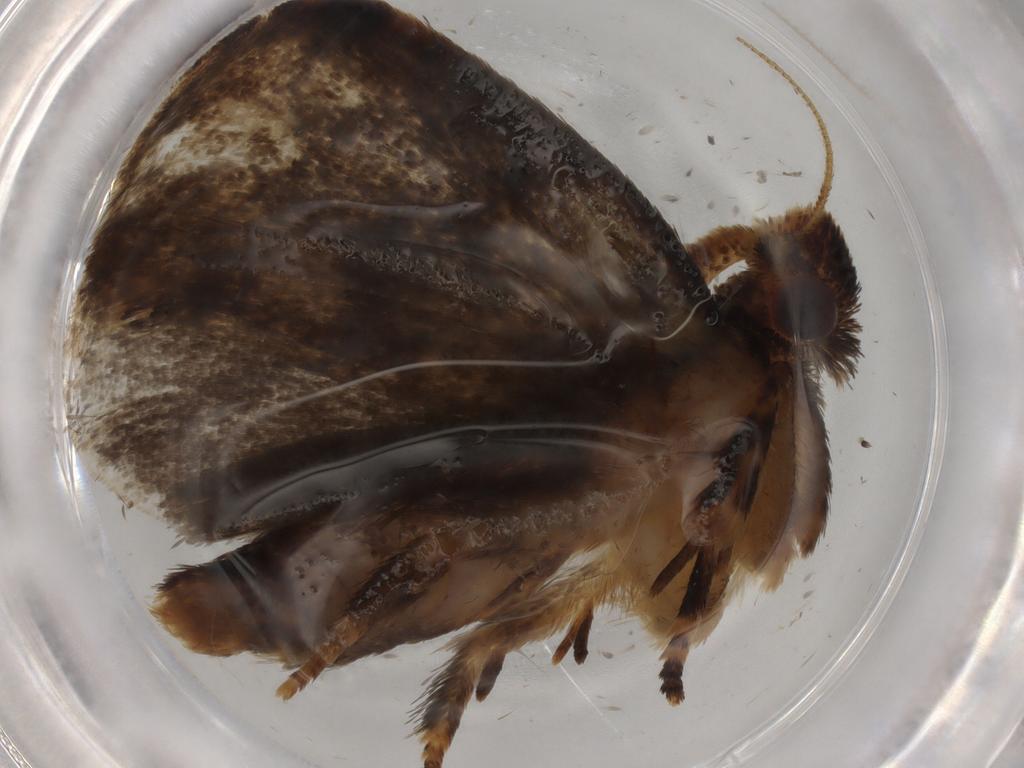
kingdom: Animalia
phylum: Arthropoda
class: Insecta
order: Lepidoptera
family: Tineidae
